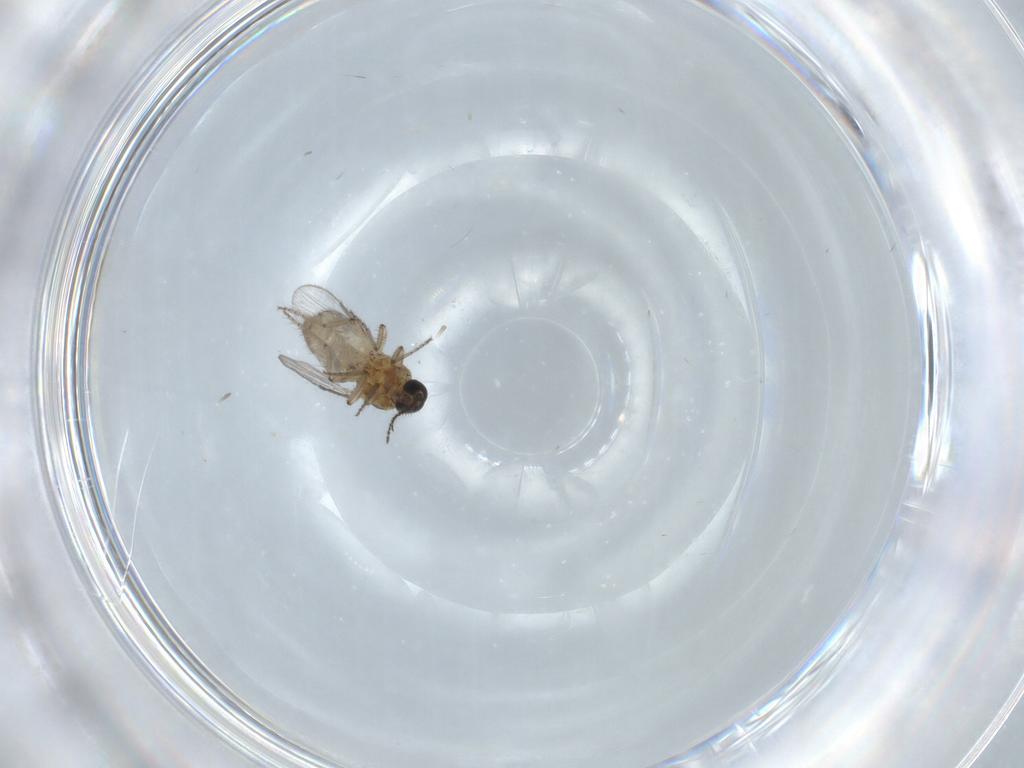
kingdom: Animalia
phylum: Arthropoda
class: Insecta
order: Diptera
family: Ceratopogonidae
